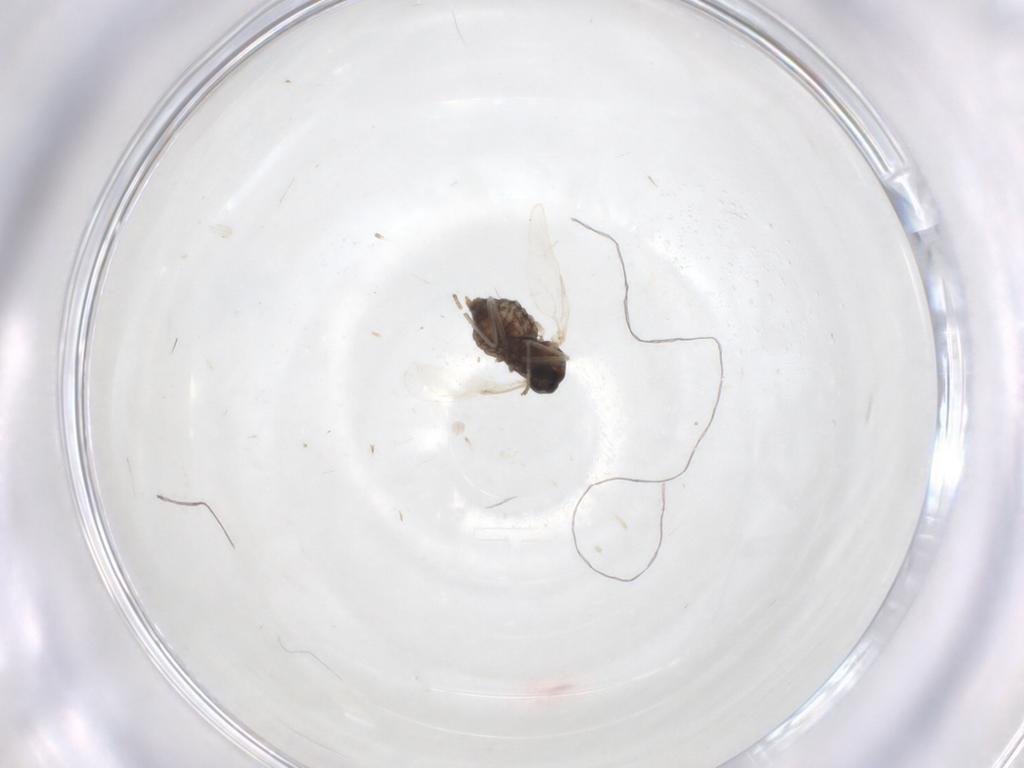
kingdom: Animalia
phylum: Arthropoda
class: Insecta
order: Diptera
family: Cecidomyiidae
